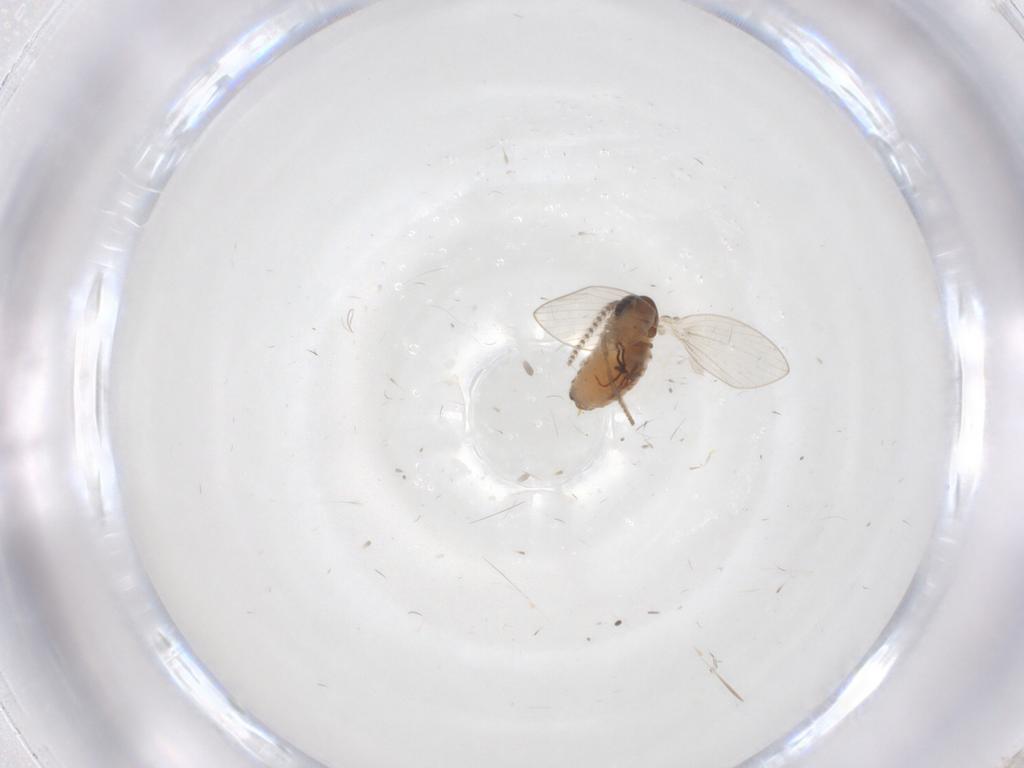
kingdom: Animalia
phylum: Arthropoda
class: Insecta
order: Diptera
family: Psychodidae
